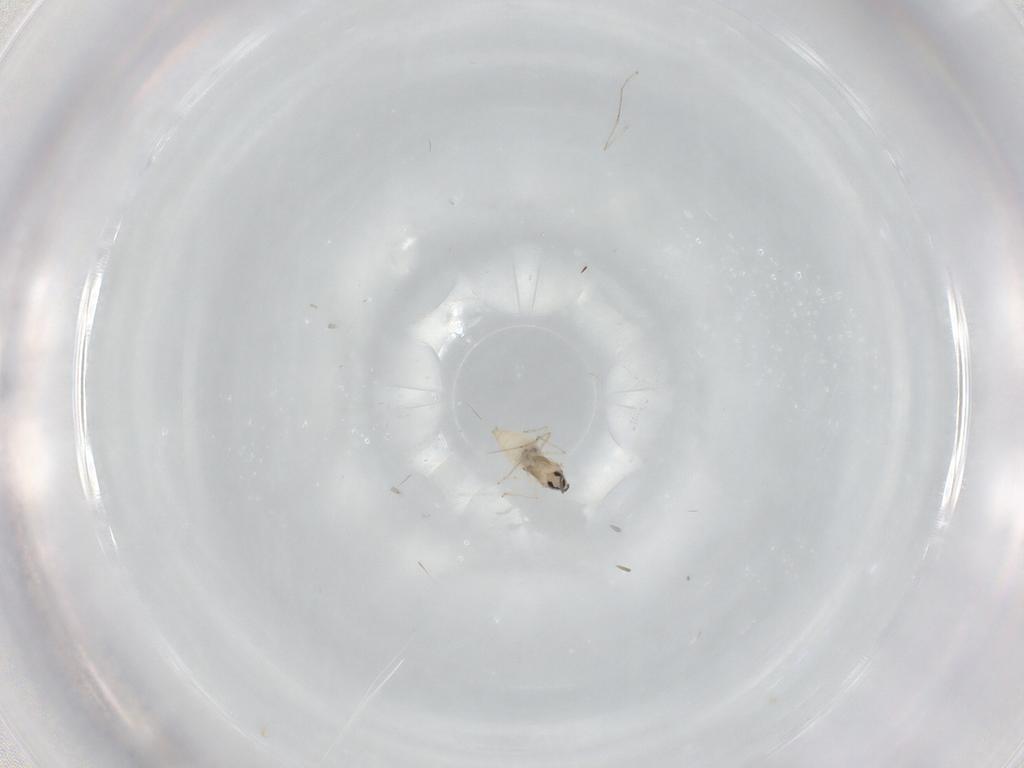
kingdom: Animalia
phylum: Arthropoda
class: Insecta
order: Diptera
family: Cecidomyiidae
